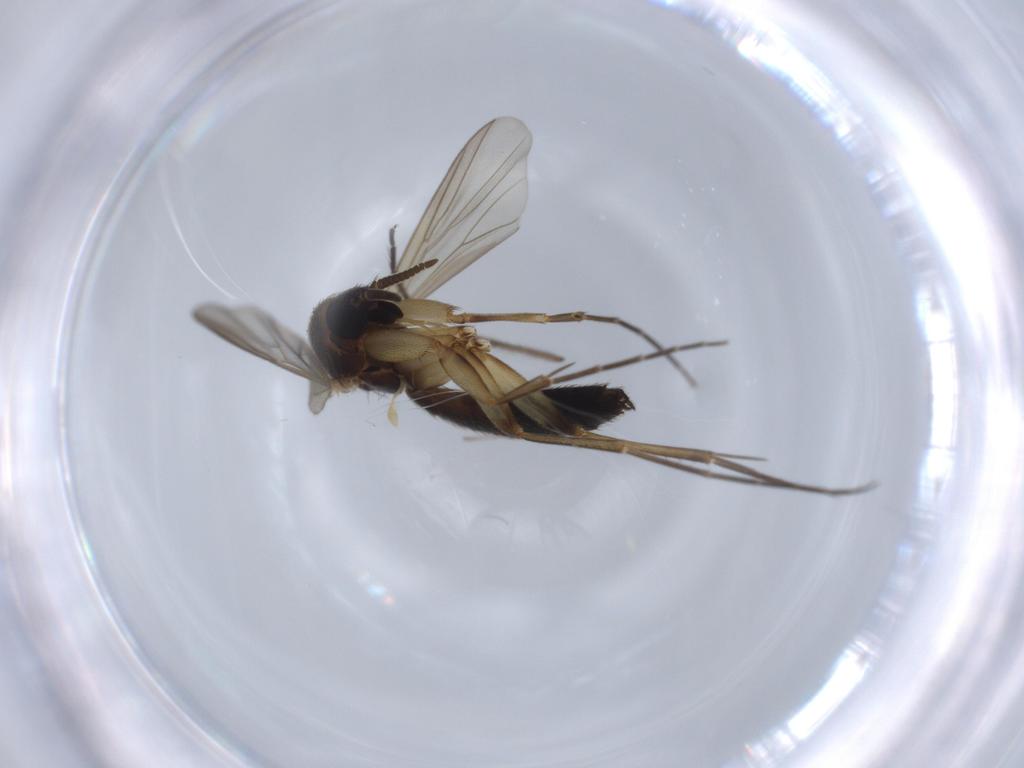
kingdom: Animalia
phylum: Arthropoda
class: Insecta
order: Diptera
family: Mycetophilidae
